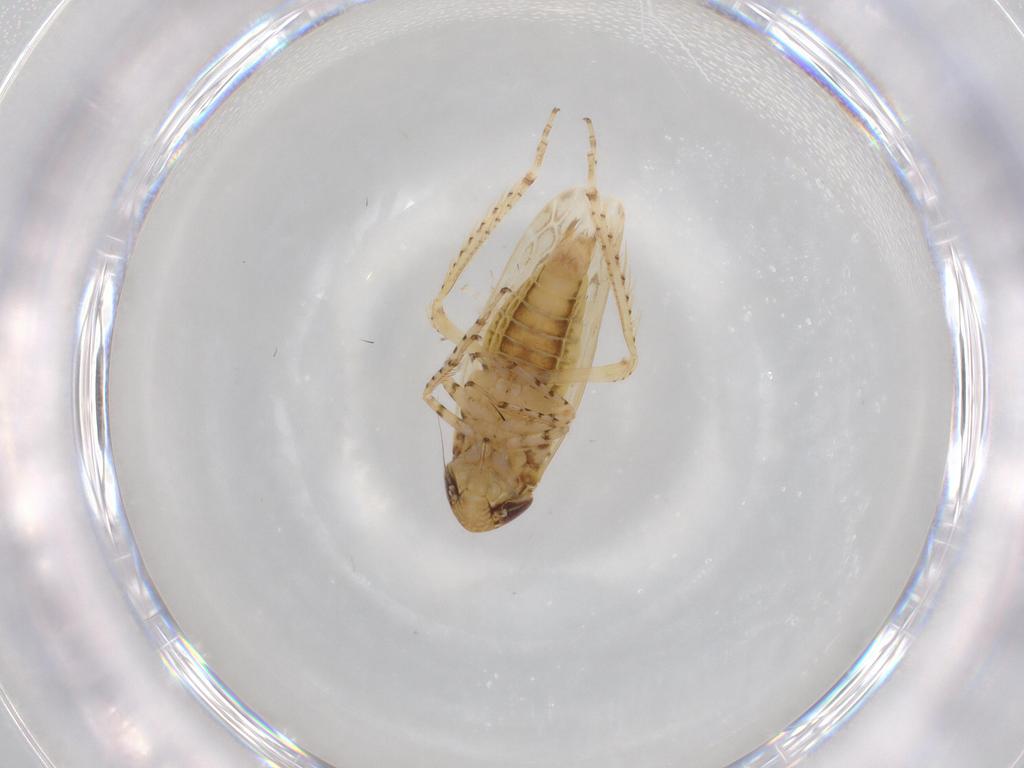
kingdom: Animalia
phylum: Arthropoda
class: Insecta
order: Hemiptera
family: Cicadellidae
